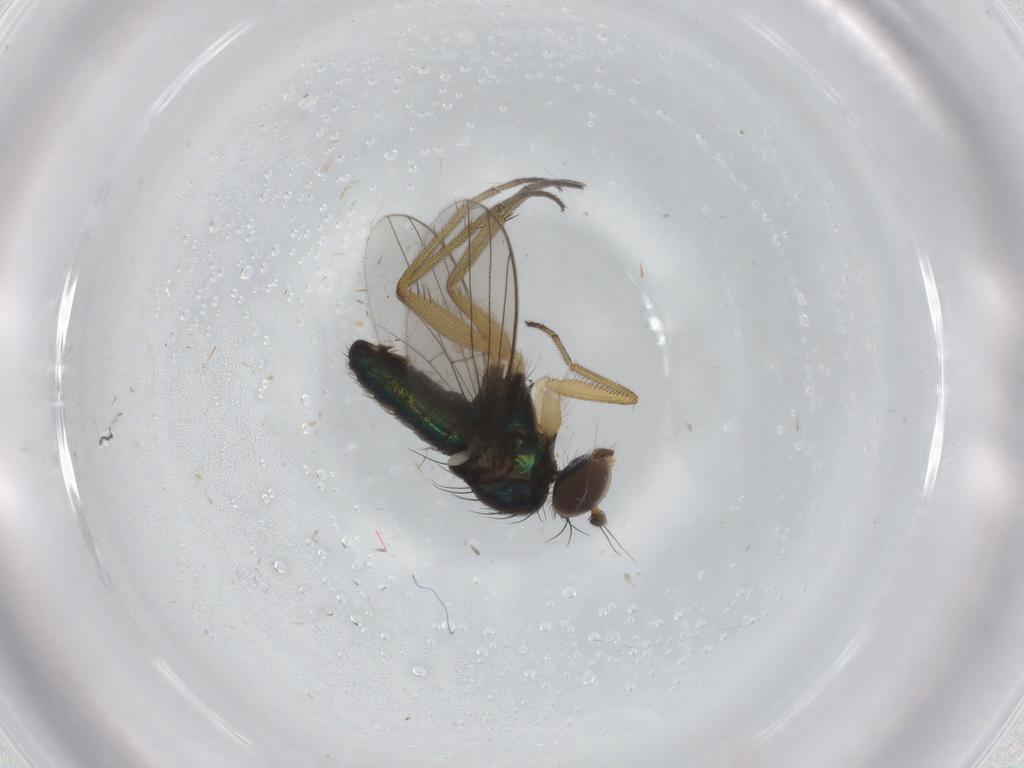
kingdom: Animalia
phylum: Arthropoda
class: Insecta
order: Diptera
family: Dolichopodidae
